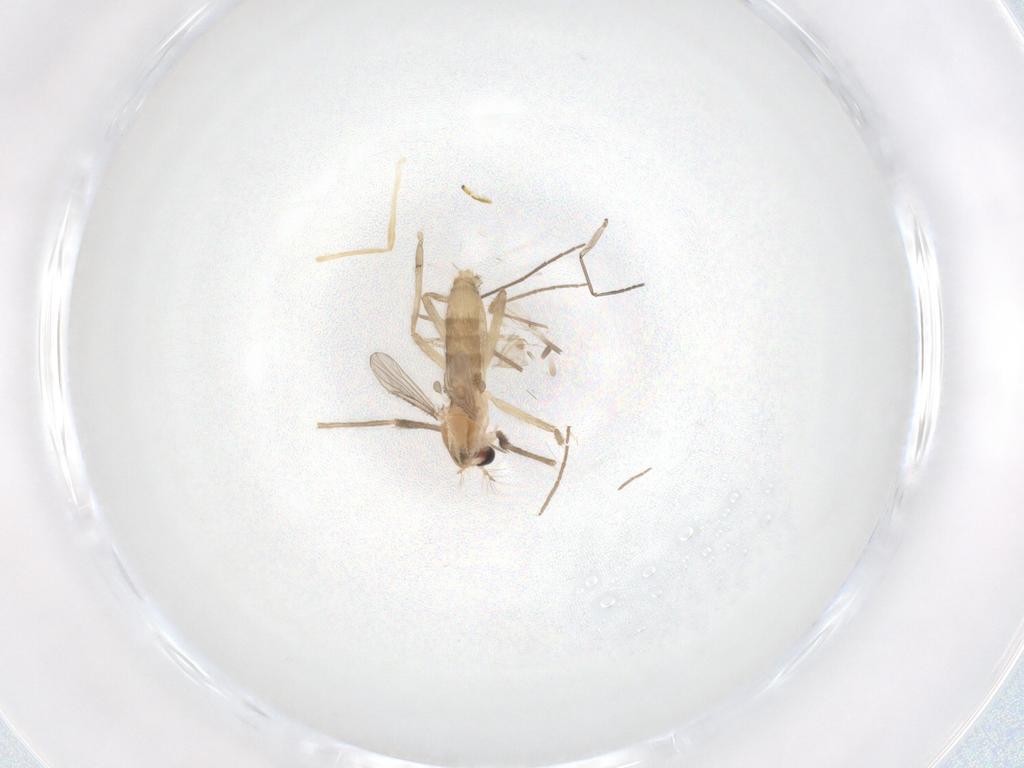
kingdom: Animalia
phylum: Arthropoda
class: Insecta
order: Diptera
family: Chironomidae
